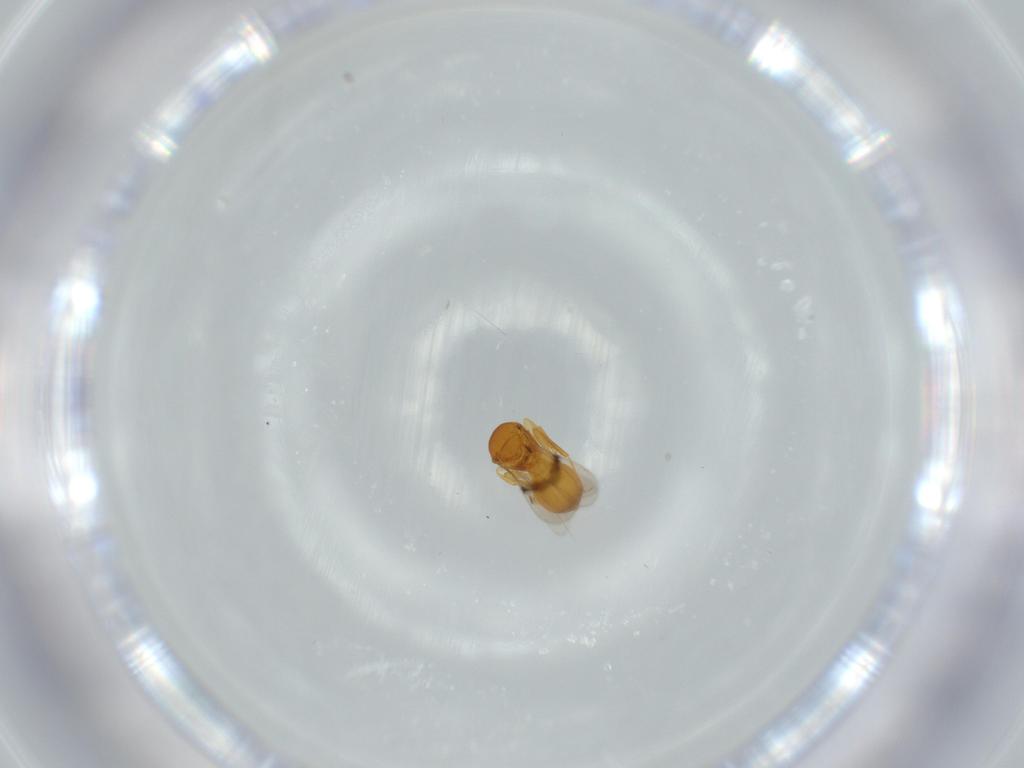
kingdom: Animalia
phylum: Arthropoda
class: Insecta
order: Hymenoptera
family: Scelionidae
